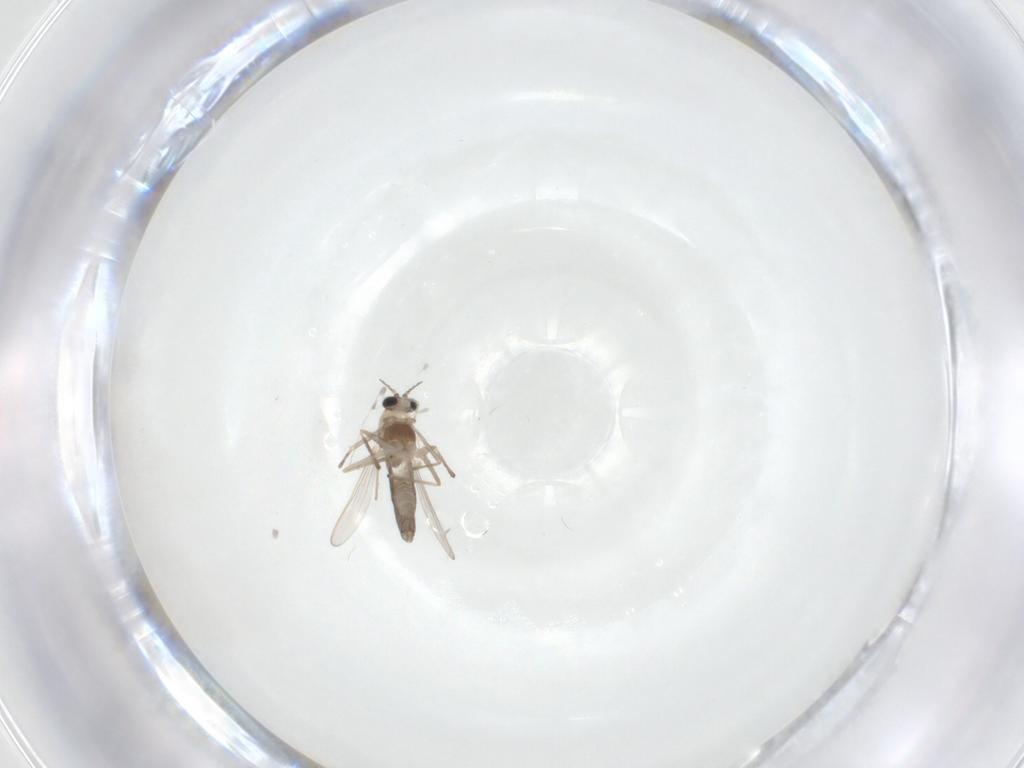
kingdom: Animalia
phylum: Arthropoda
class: Insecta
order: Diptera
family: Chironomidae
